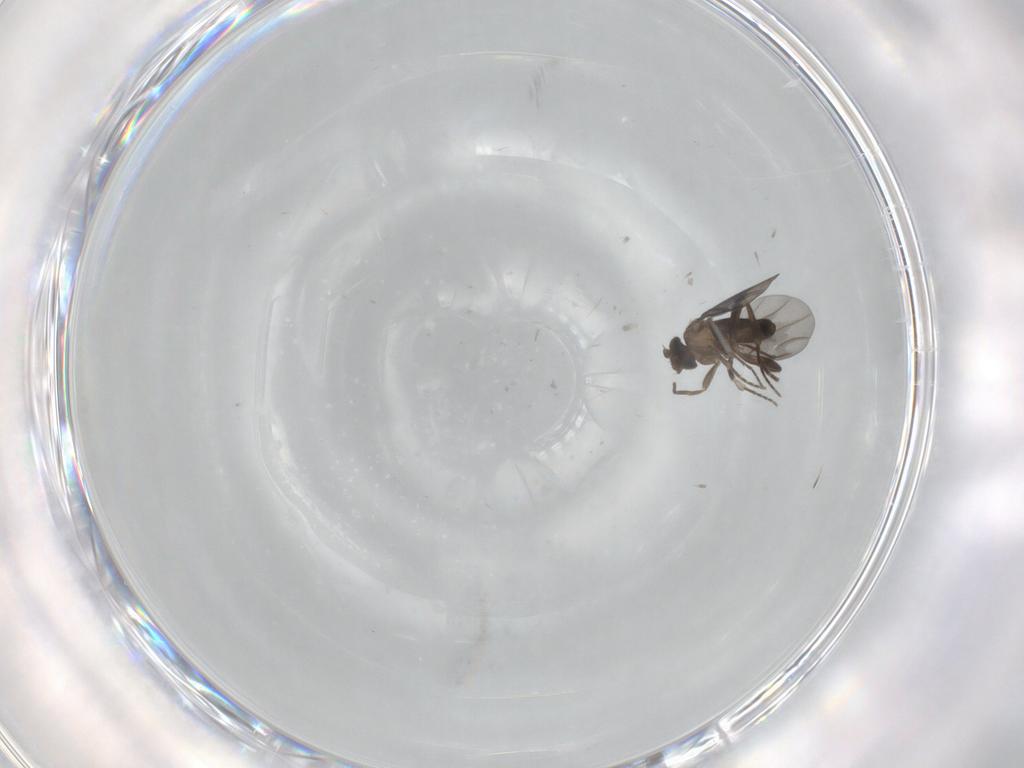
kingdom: Animalia
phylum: Arthropoda
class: Insecta
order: Diptera
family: Phoridae
